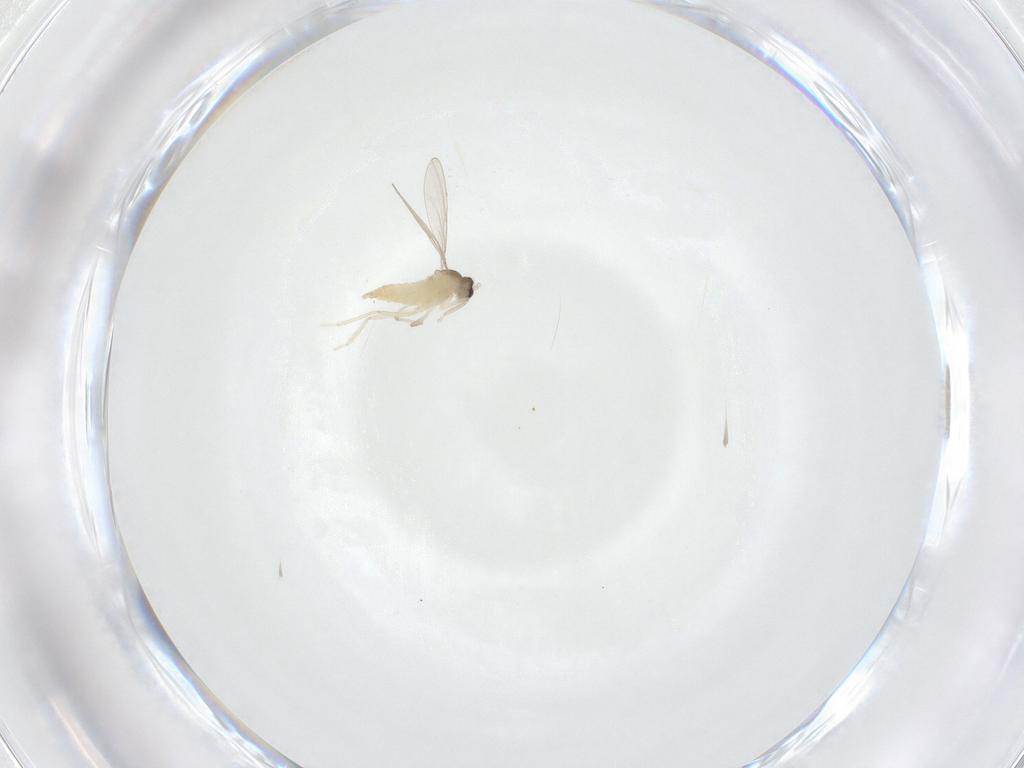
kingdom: Animalia
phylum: Arthropoda
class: Insecta
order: Diptera
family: Cecidomyiidae
